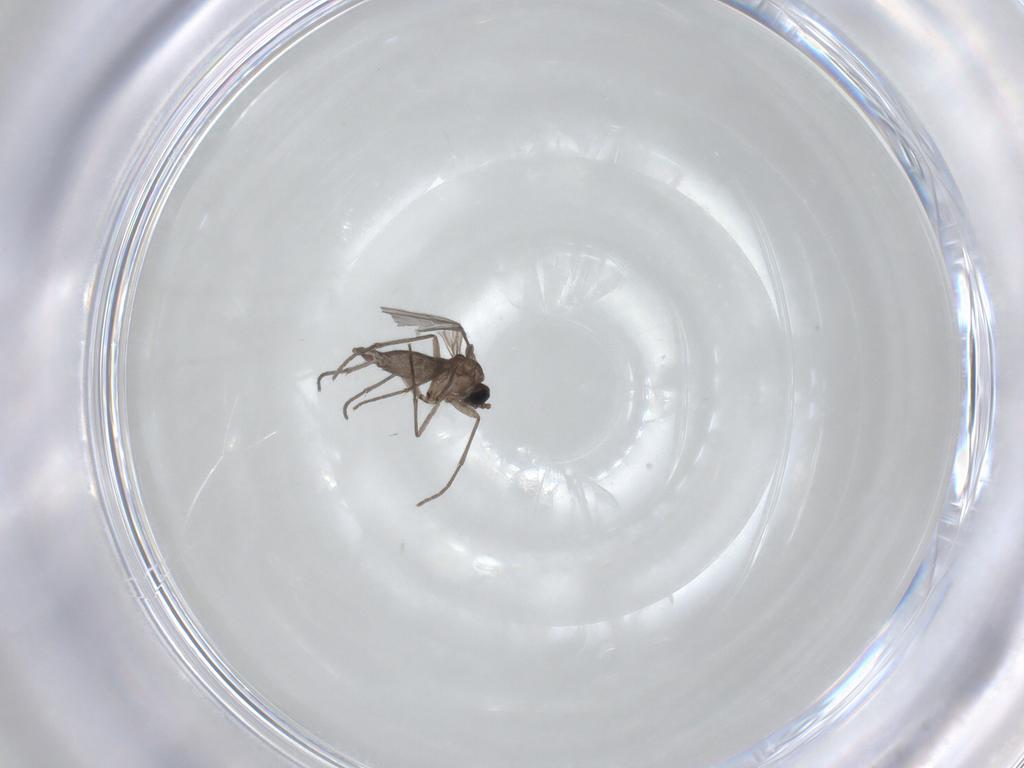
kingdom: Animalia
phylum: Arthropoda
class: Insecta
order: Diptera
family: Sciaridae
